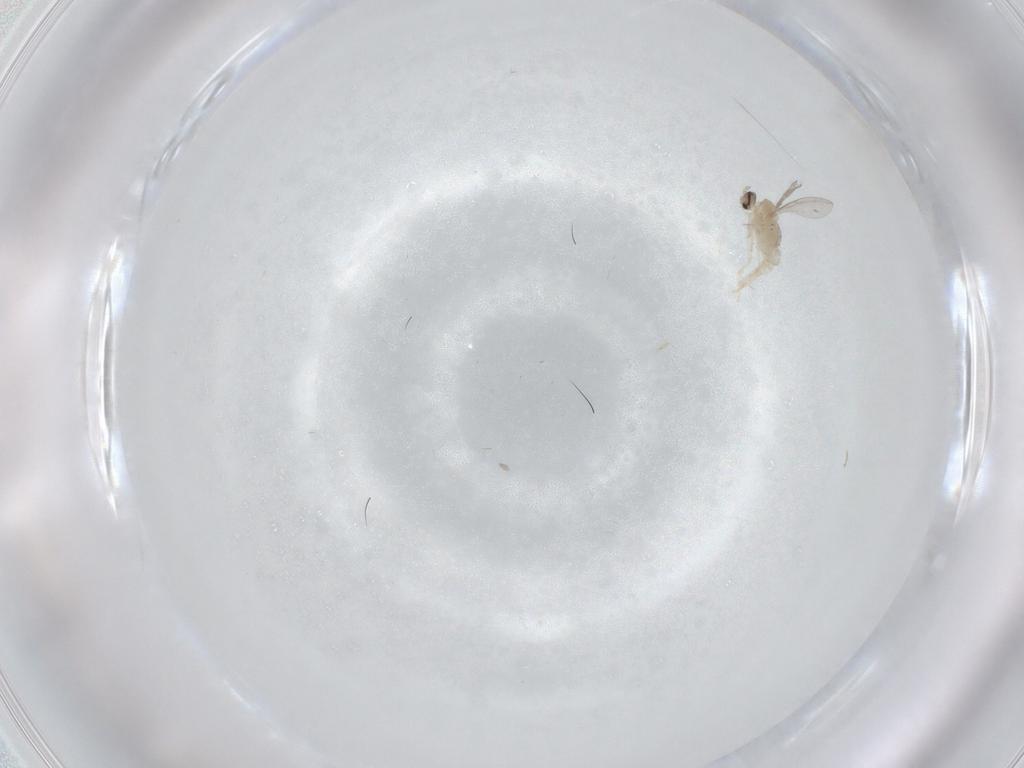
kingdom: Animalia
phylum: Arthropoda
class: Insecta
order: Diptera
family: Cecidomyiidae
